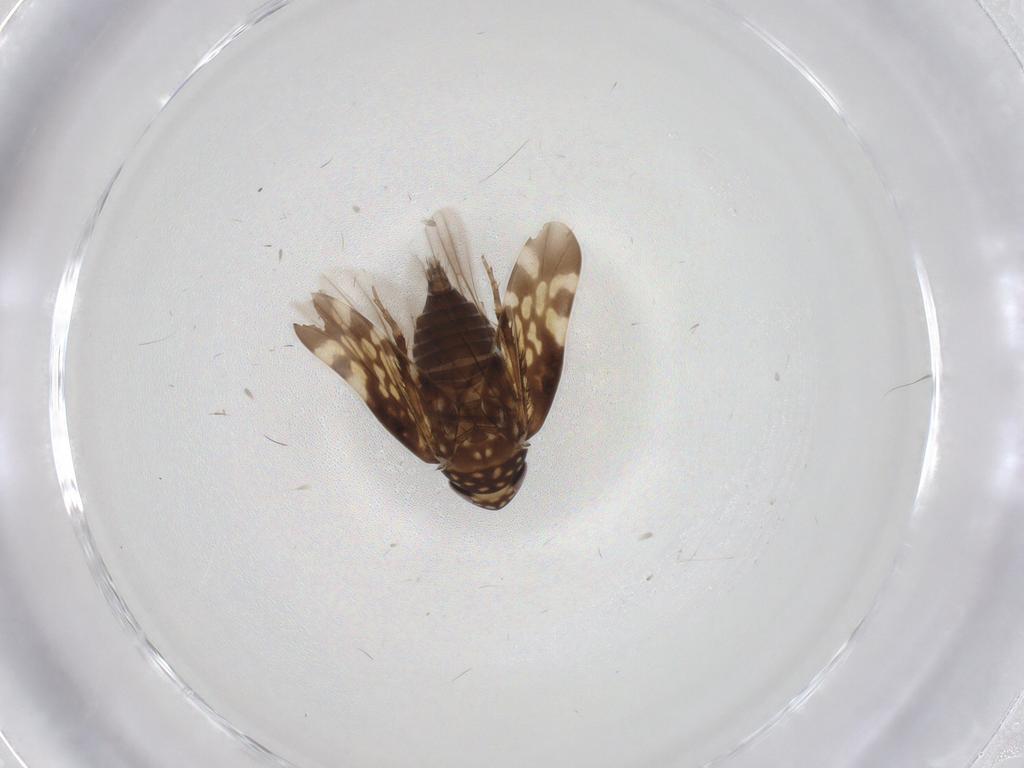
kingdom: Animalia
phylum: Arthropoda
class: Insecta
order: Hemiptera
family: Cicadellidae
